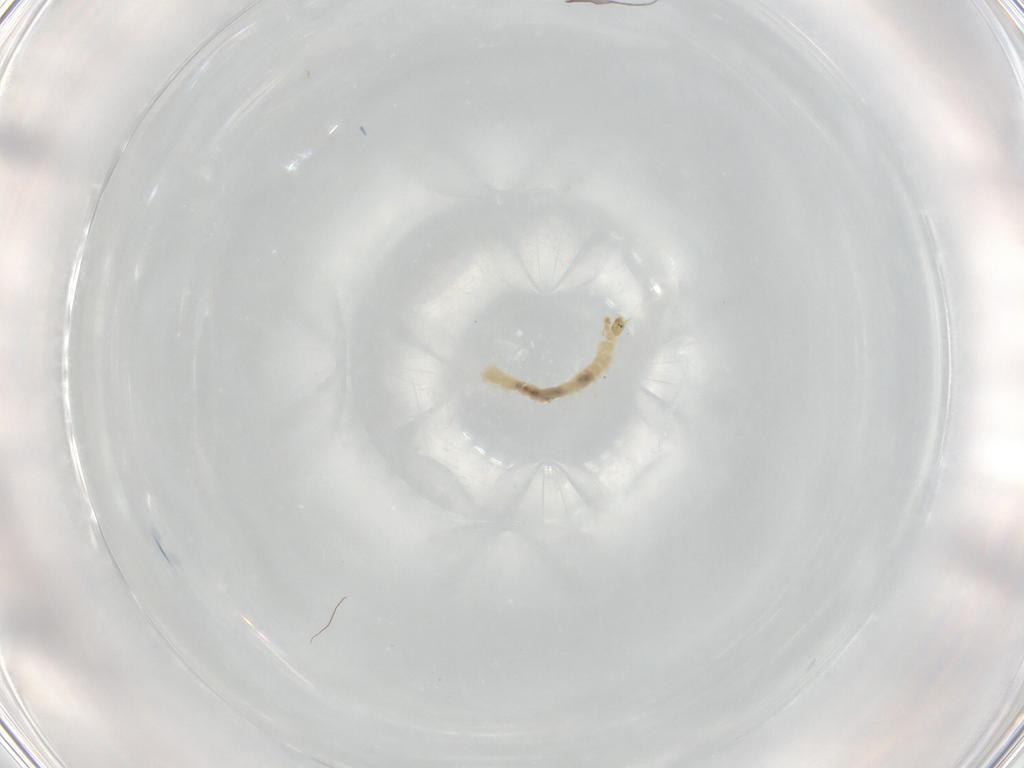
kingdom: Animalia
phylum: Arthropoda
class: Insecta
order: Diptera
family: Chironomidae
